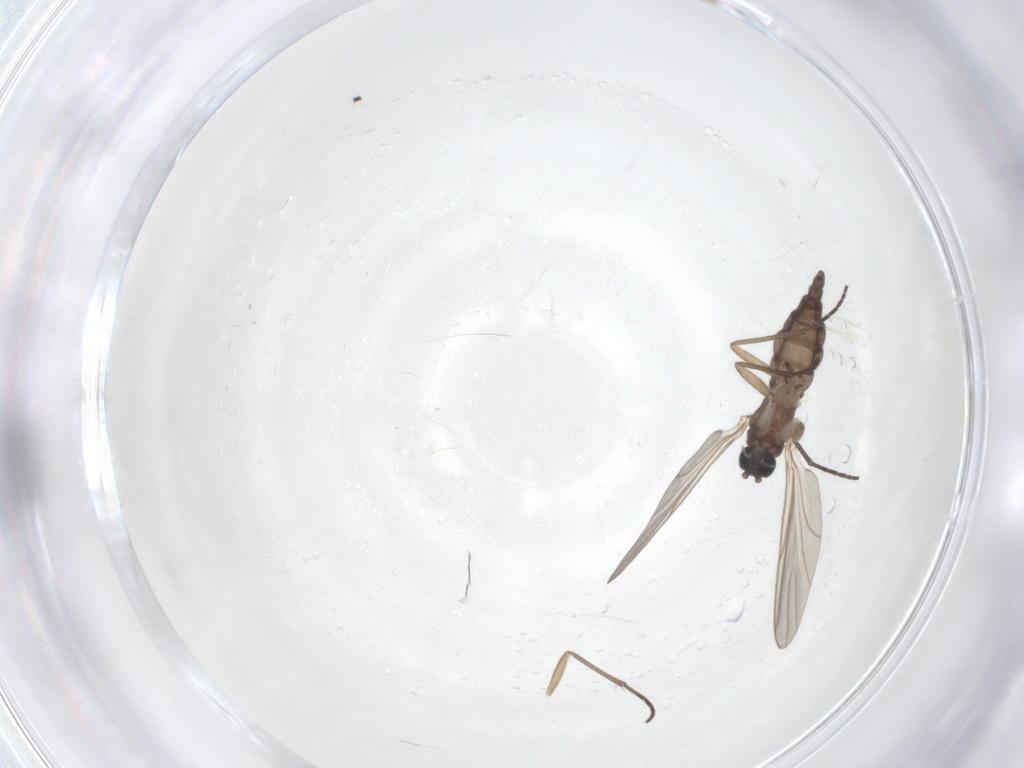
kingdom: Animalia
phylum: Arthropoda
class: Insecta
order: Diptera
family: Sciaridae
